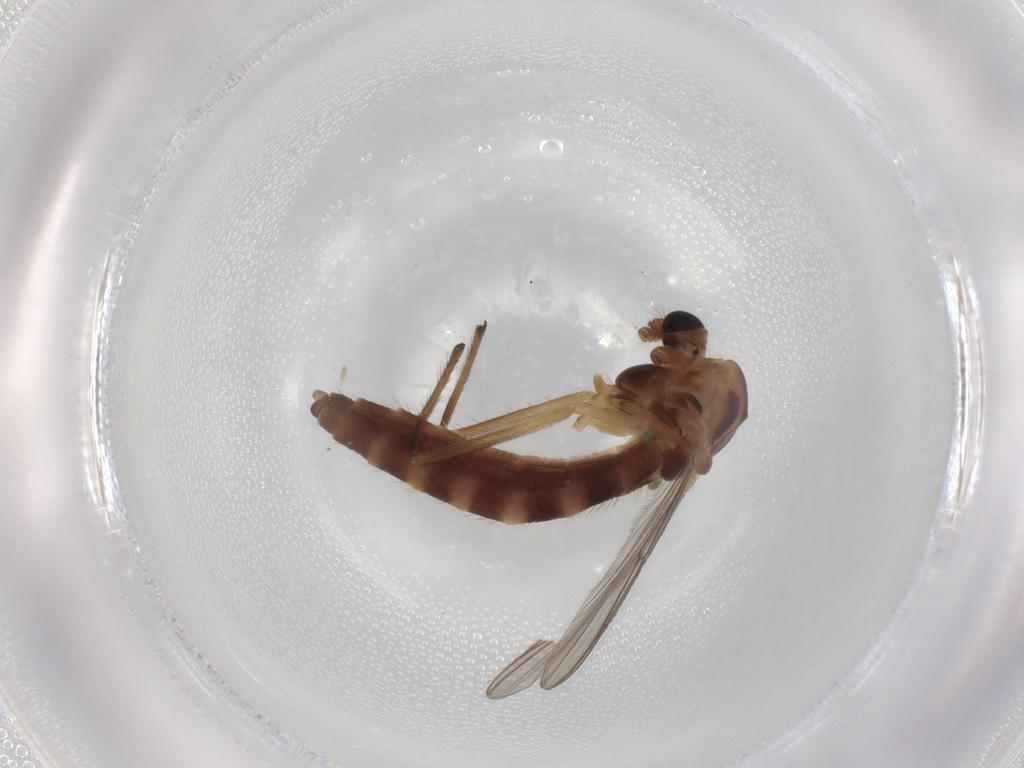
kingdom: Animalia
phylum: Arthropoda
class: Insecta
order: Diptera
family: Chironomidae
